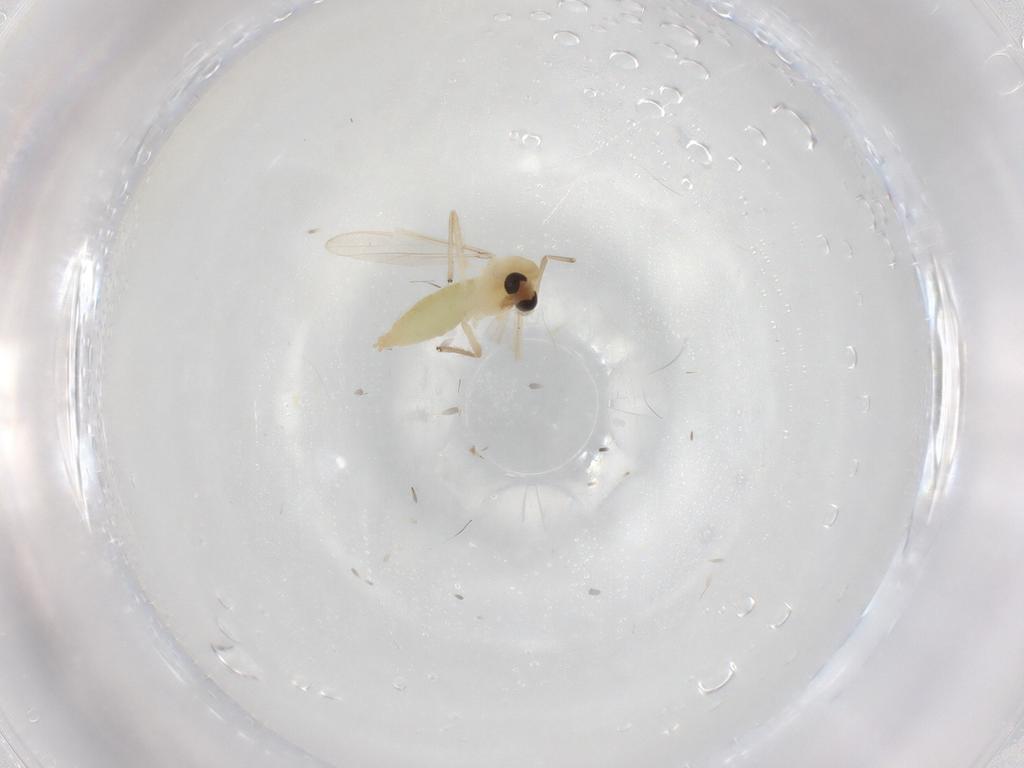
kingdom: Animalia
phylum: Arthropoda
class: Insecta
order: Diptera
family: Chironomidae
